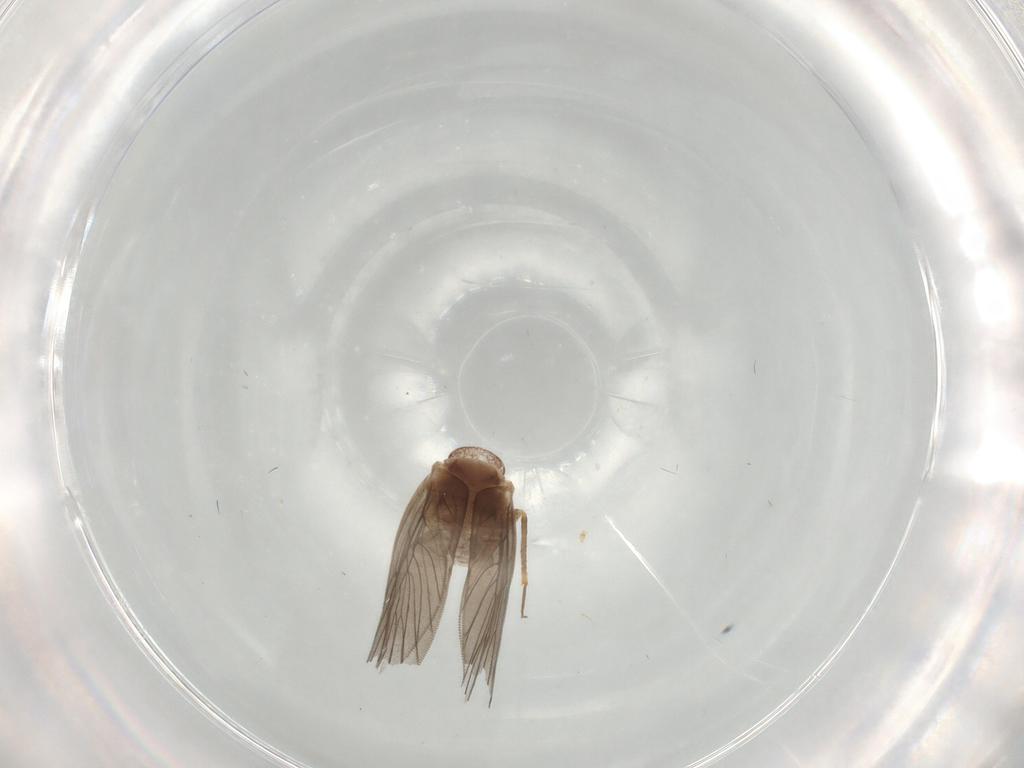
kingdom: Animalia
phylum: Arthropoda
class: Insecta
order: Psocodea
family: Lepidopsocidae
